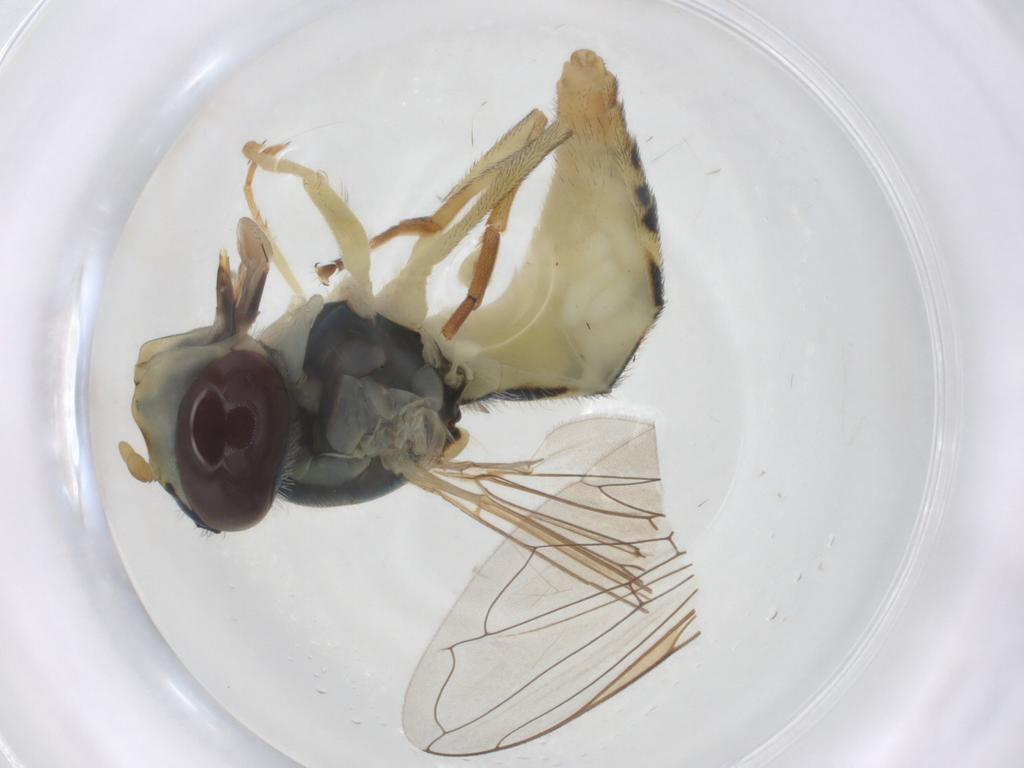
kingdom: Animalia
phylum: Arthropoda
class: Insecta
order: Diptera
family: Syrphidae
